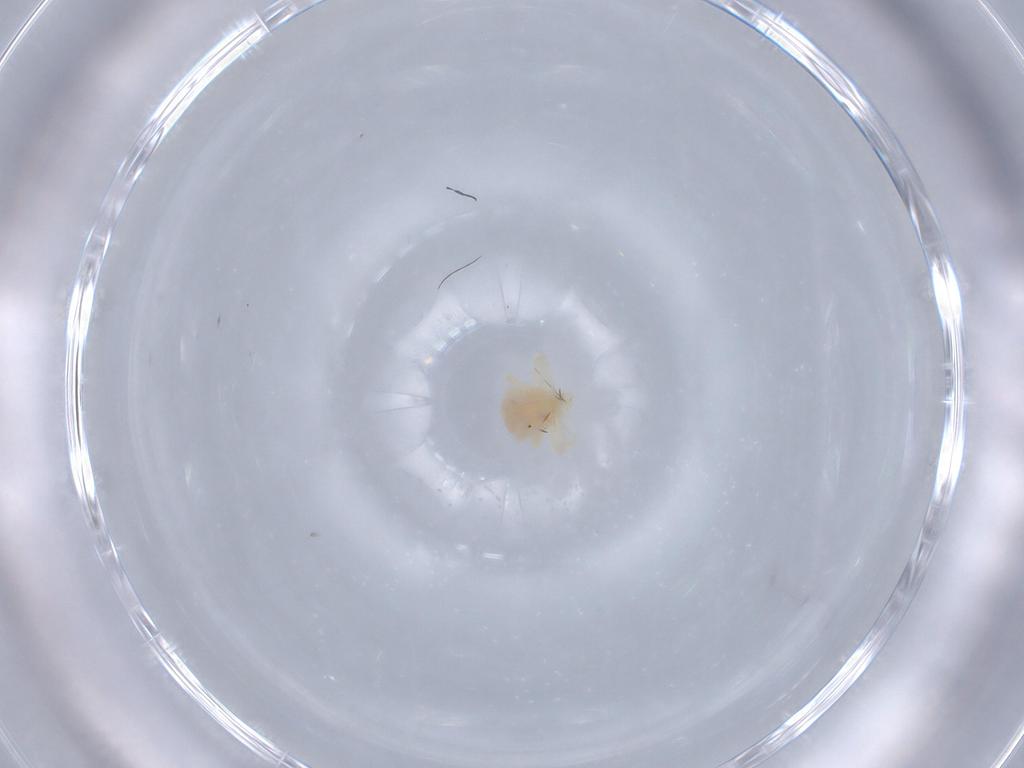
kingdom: Animalia
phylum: Arthropoda
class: Arachnida
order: Trombidiformes
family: Anystidae
